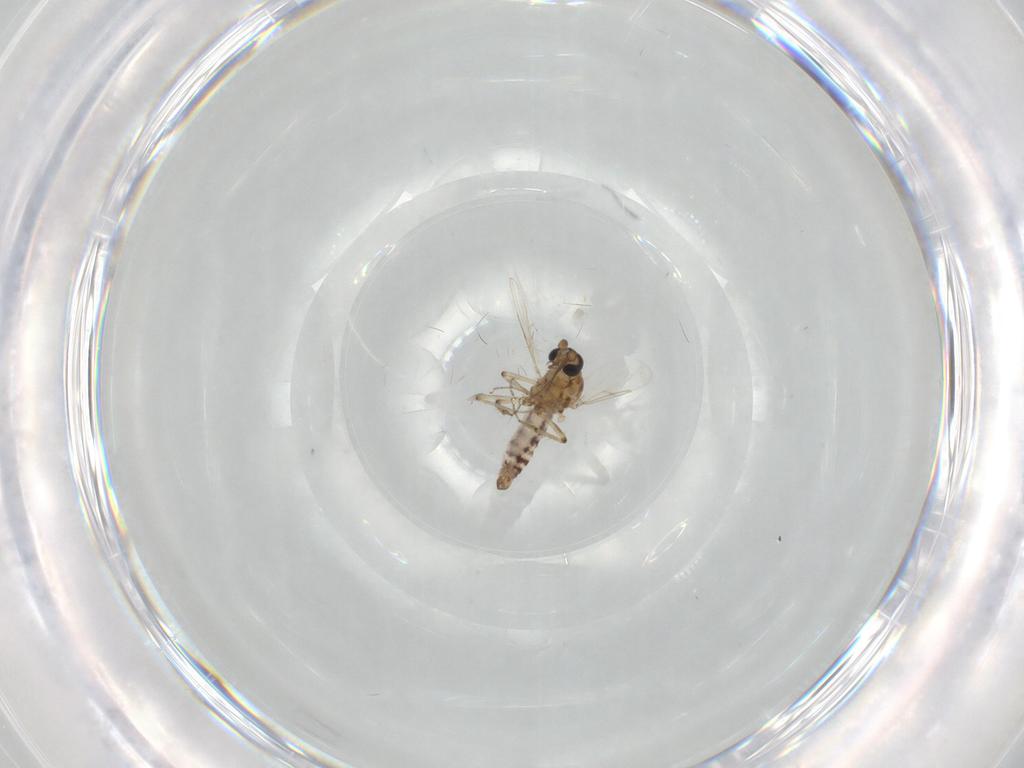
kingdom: Animalia
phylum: Arthropoda
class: Insecta
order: Diptera
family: Ceratopogonidae
